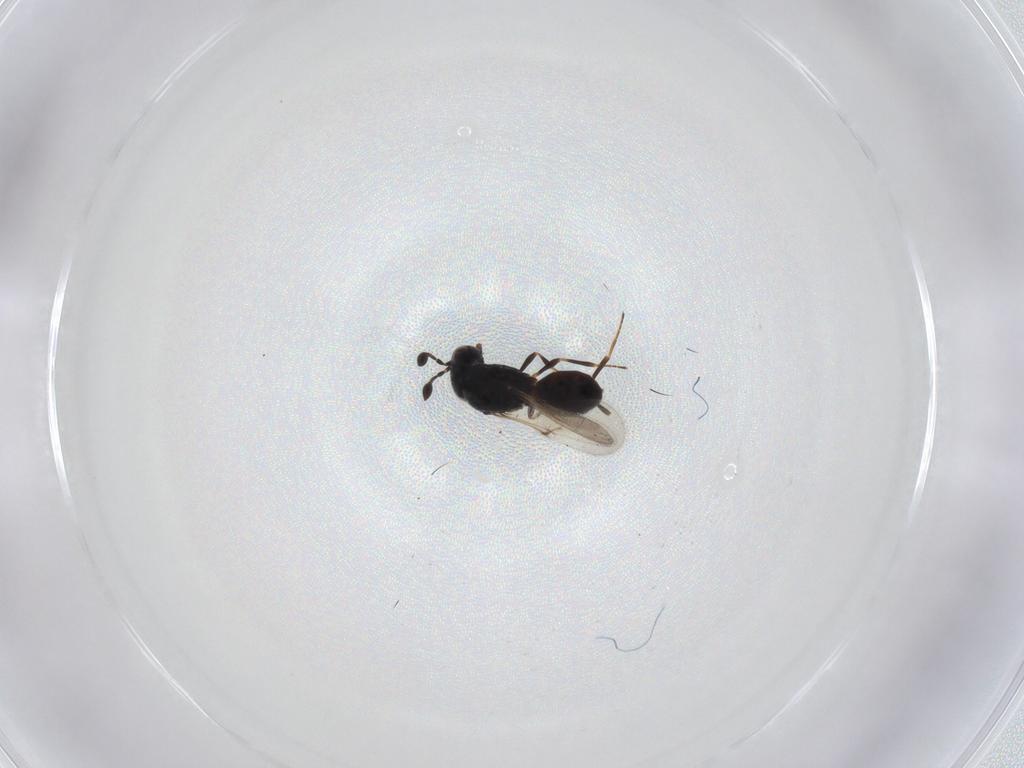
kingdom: Animalia
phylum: Arthropoda
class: Insecta
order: Hymenoptera
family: Scelionidae
